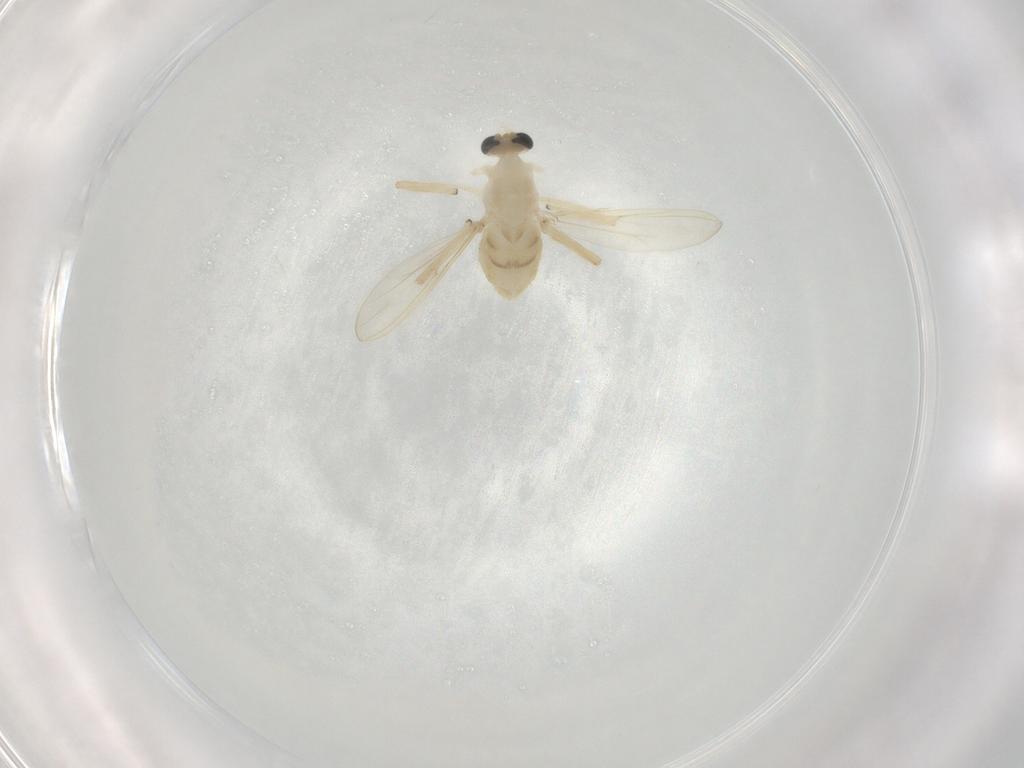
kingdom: Animalia
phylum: Arthropoda
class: Insecta
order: Diptera
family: Chironomidae
